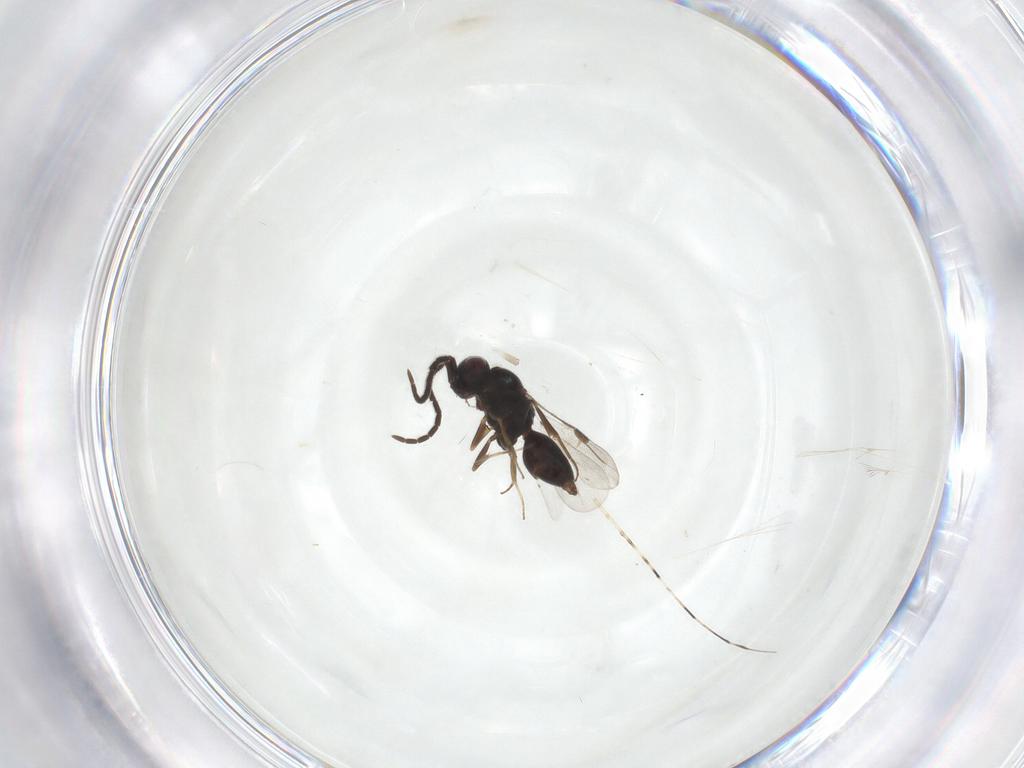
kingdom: Animalia
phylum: Arthropoda
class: Insecta
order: Hymenoptera
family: Megaspilidae
